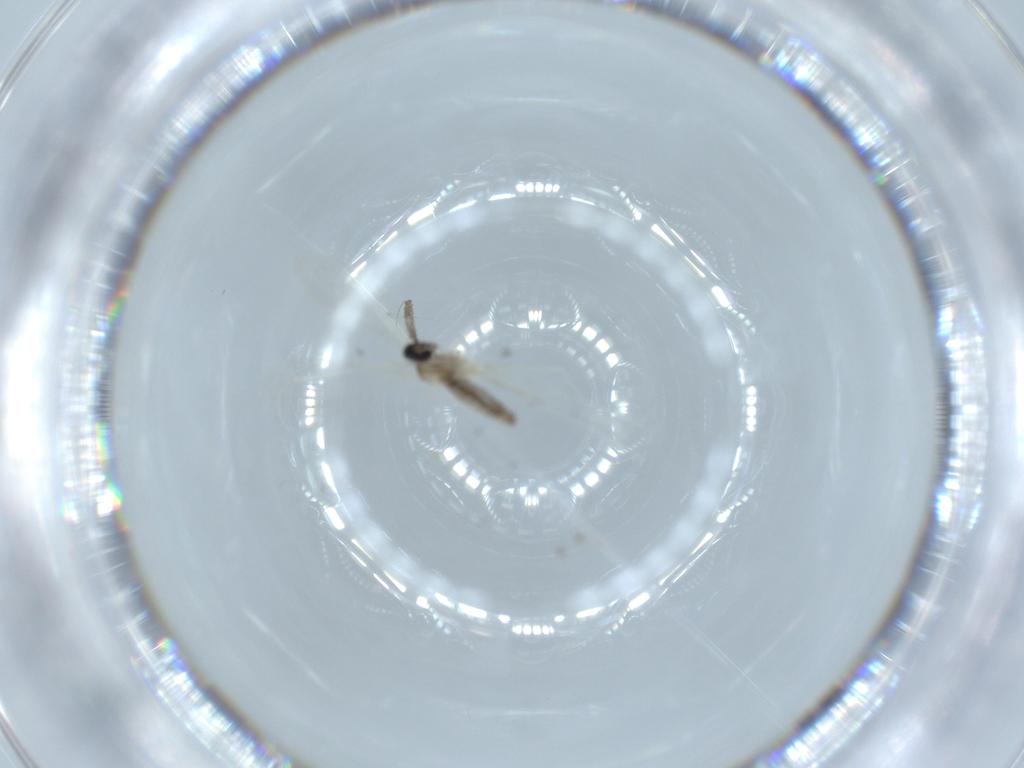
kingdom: Animalia
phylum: Arthropoda
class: Insecta
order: Diptera
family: Cecidomyiidae
